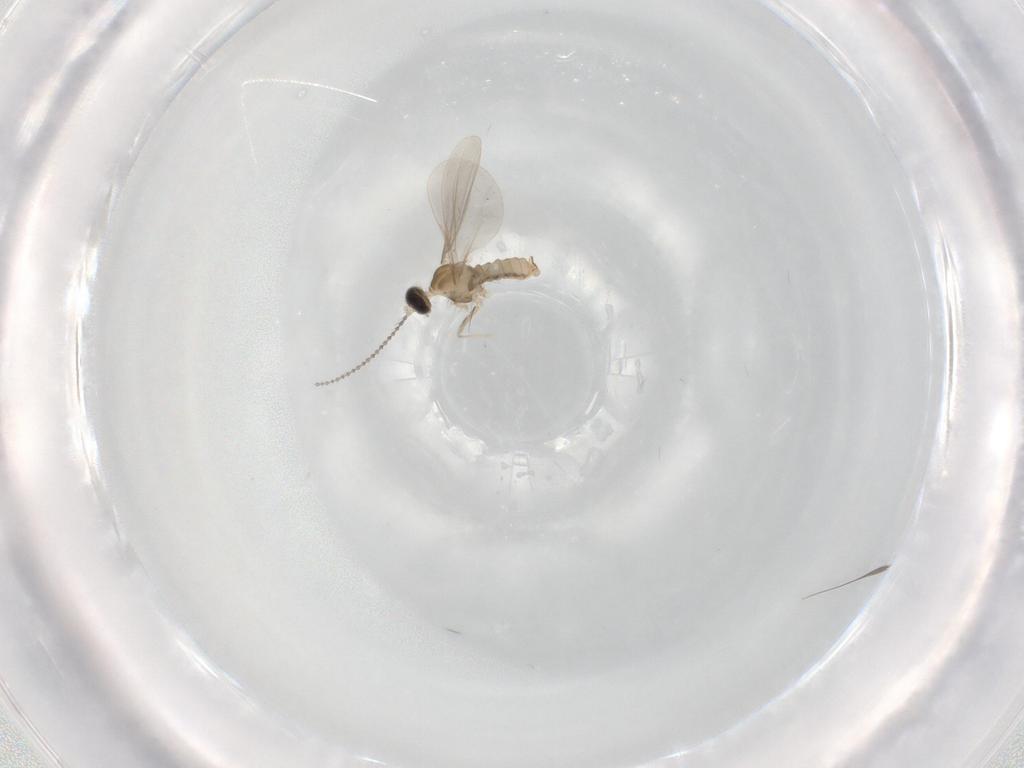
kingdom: Animalia
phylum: Arthropoda
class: Insecta
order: Diptera
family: Cecidomyiidae
